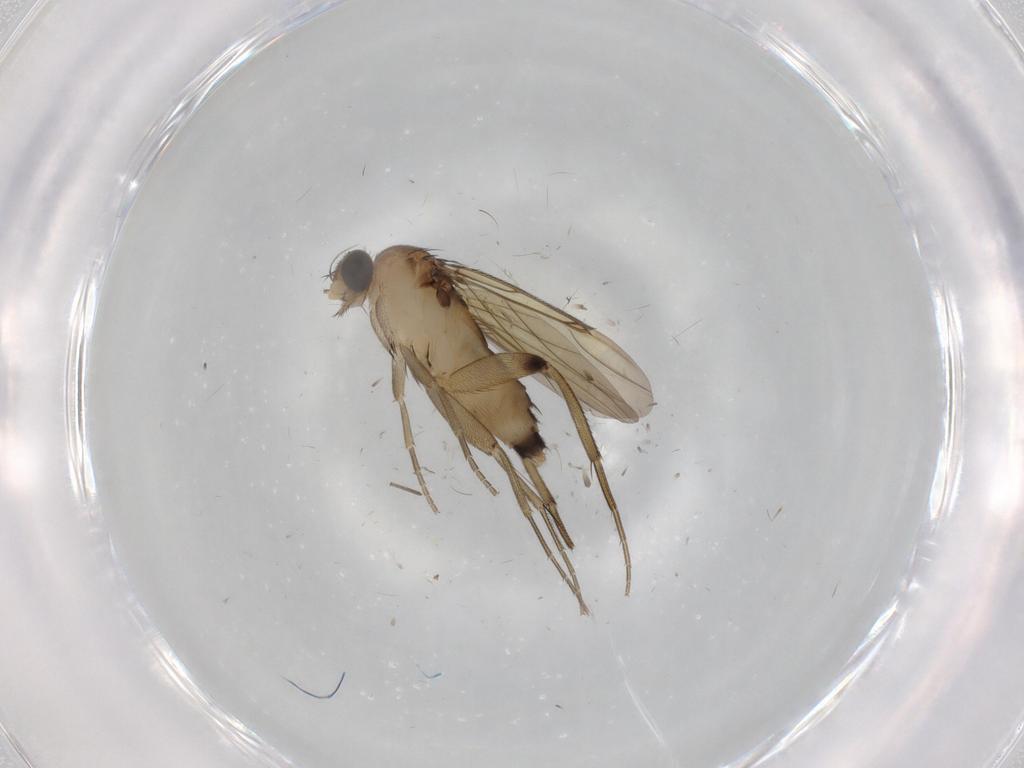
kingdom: Animalia
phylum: Arthropoda
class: Insecta
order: Diptera
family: Phoridae
